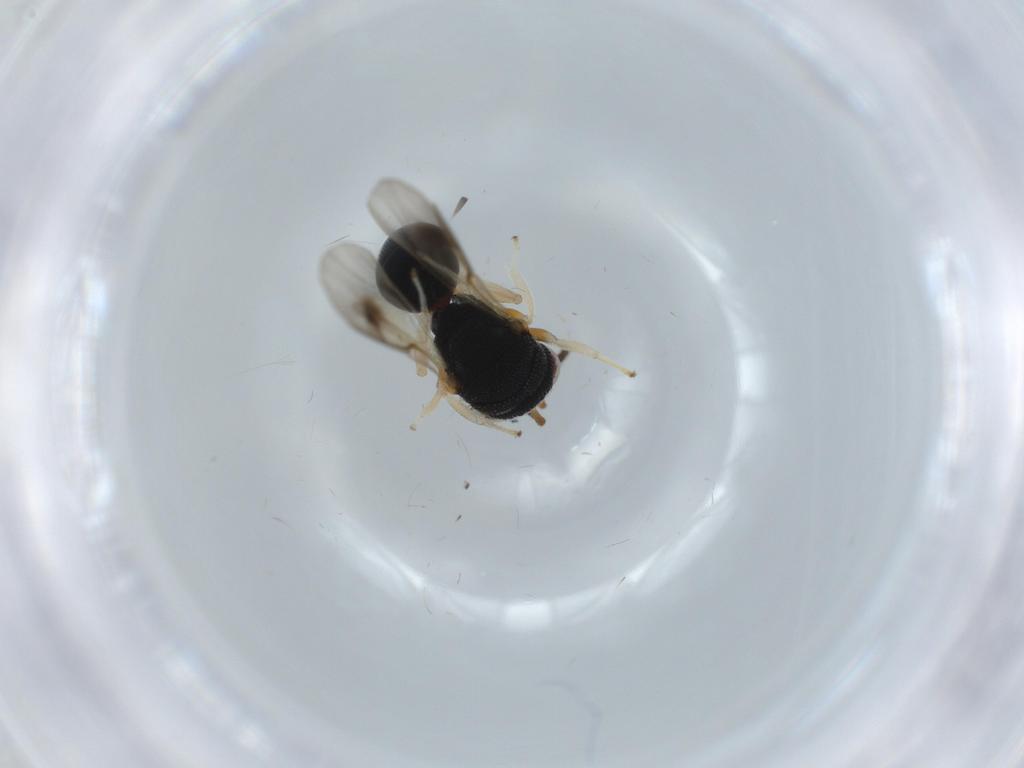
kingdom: Animalia
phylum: Arthropoda
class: Insecta
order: Hymenoptera
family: Eurytomidae
